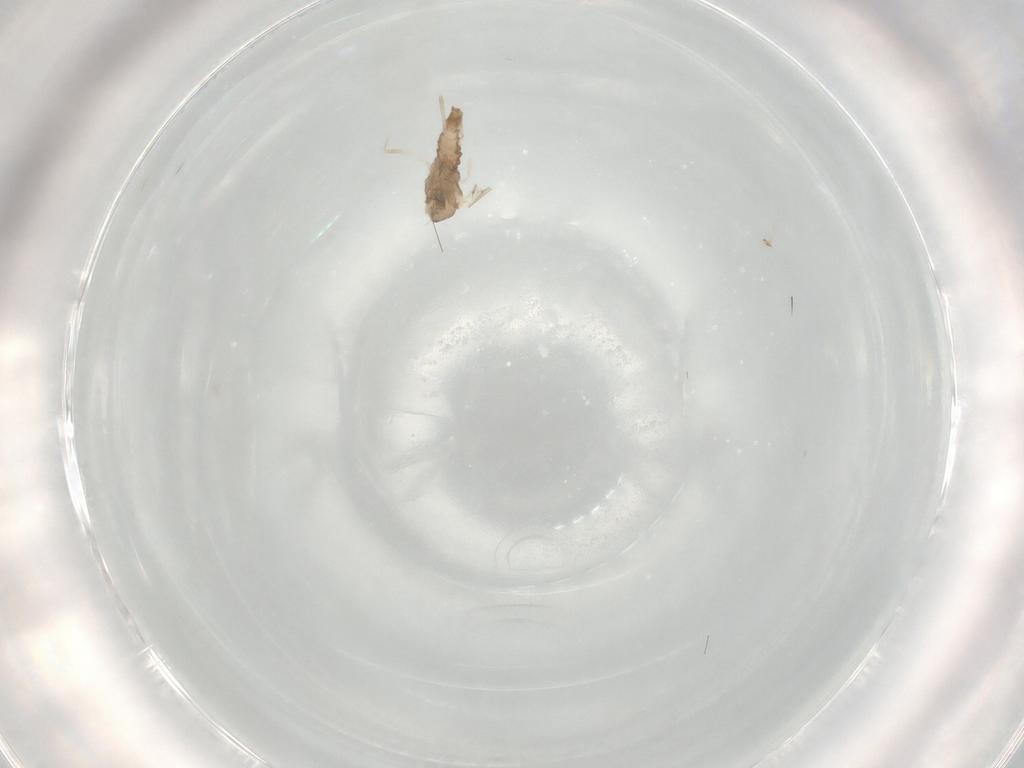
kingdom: Animalia
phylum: Arthropoda
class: Insecta
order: Diptera
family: Cecidomyiidae
